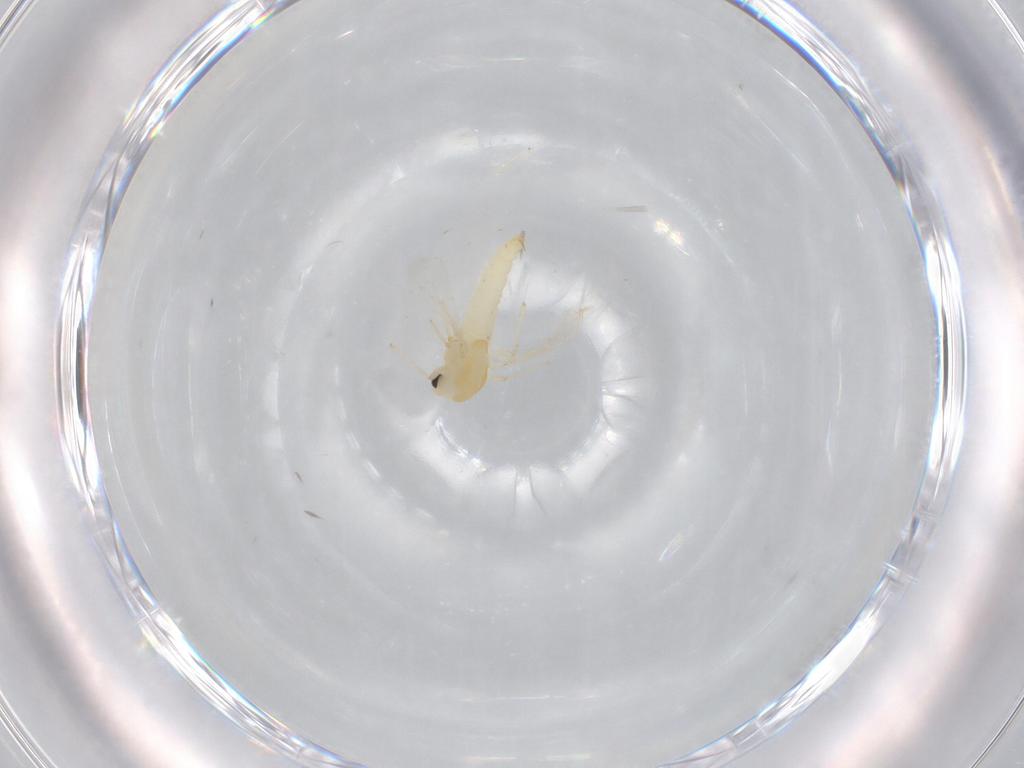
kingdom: Animalia
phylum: Arthropoda
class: Insecta
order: Diptera
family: Chironomidae
